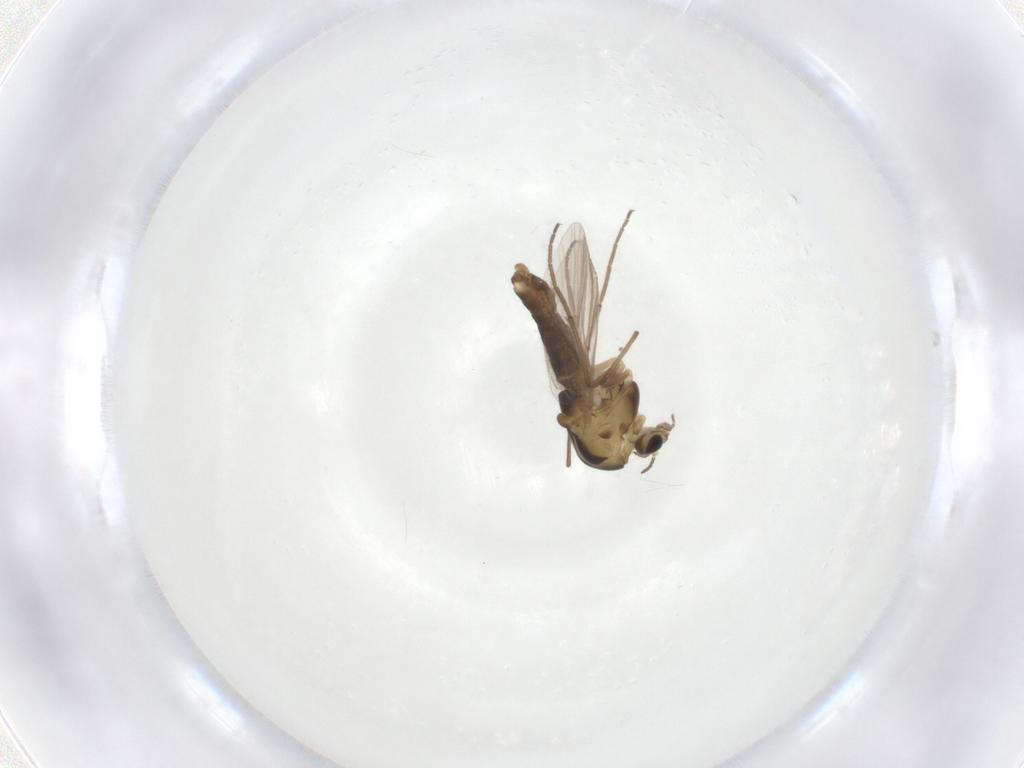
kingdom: Animalia
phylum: Arthropoda
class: Insecta
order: Diptera
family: Chironomidae
